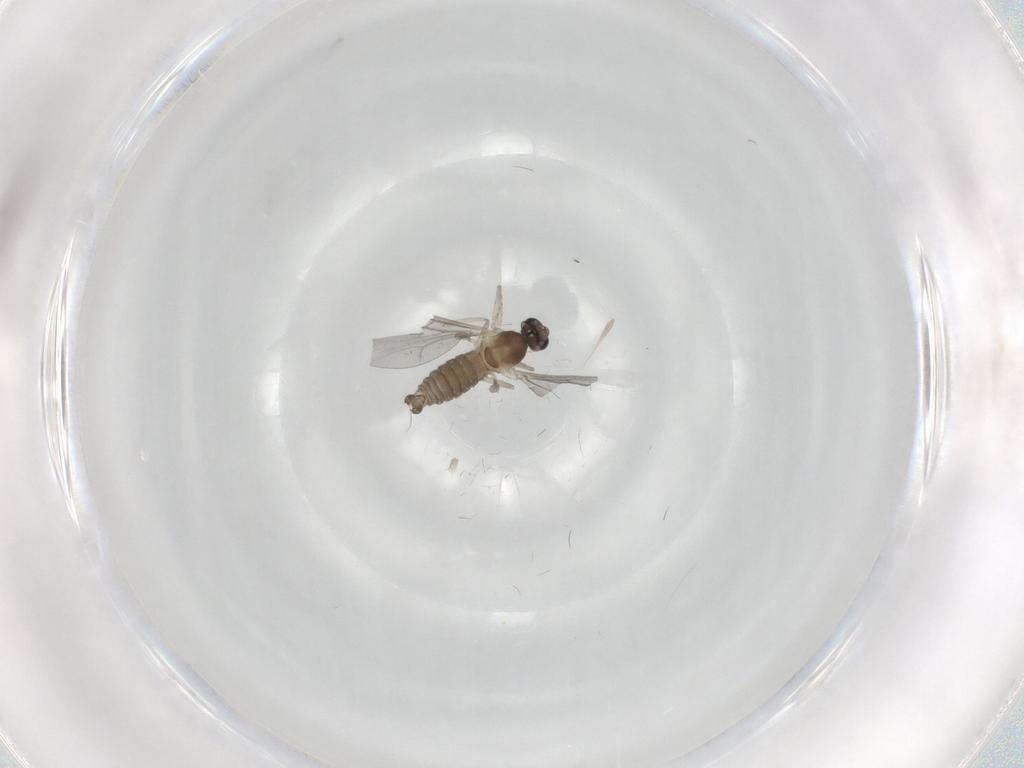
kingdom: Animalia
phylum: Arthropoda
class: Insecta
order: Diptera
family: Cecidomyiidae
